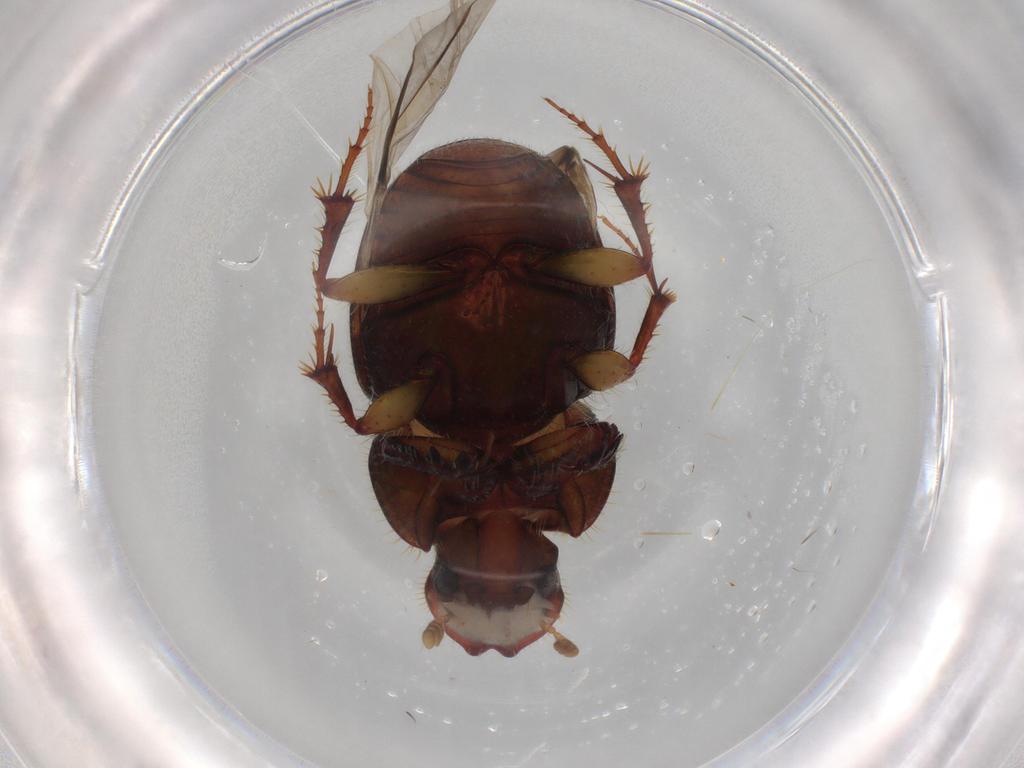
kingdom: Animalia
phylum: Arthropoda
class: Insecta
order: Coleoptera
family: Scarabaeidae
